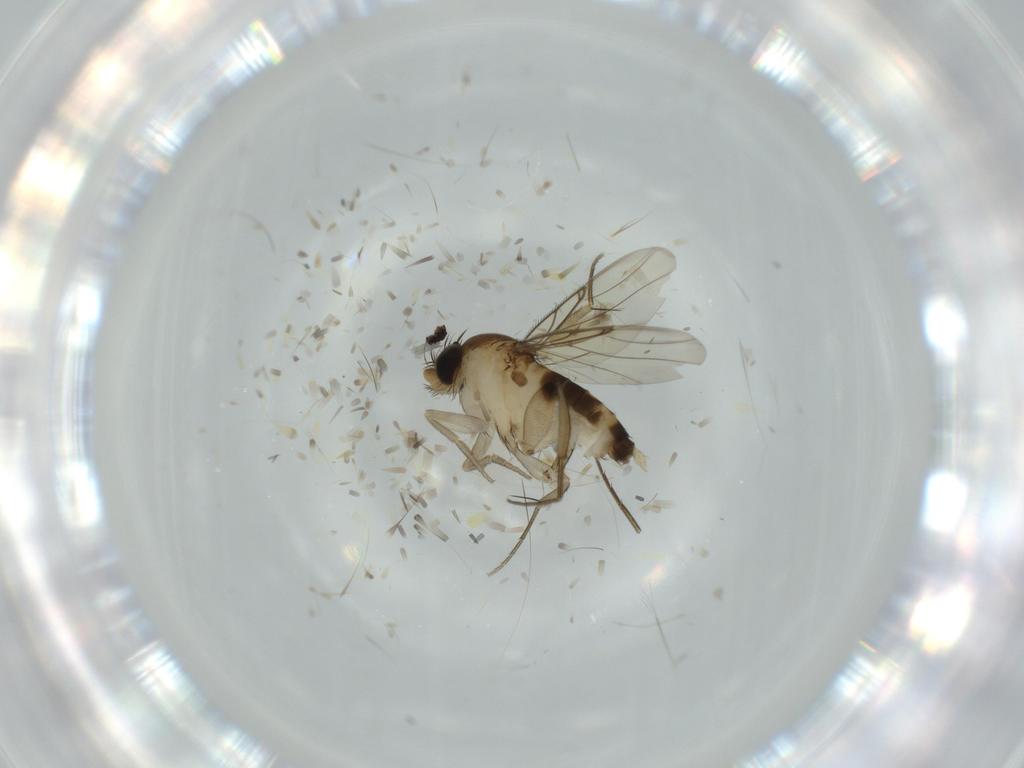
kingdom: Animalia
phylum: Arthropoda
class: Insecta
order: Diptera
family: Phoridae
